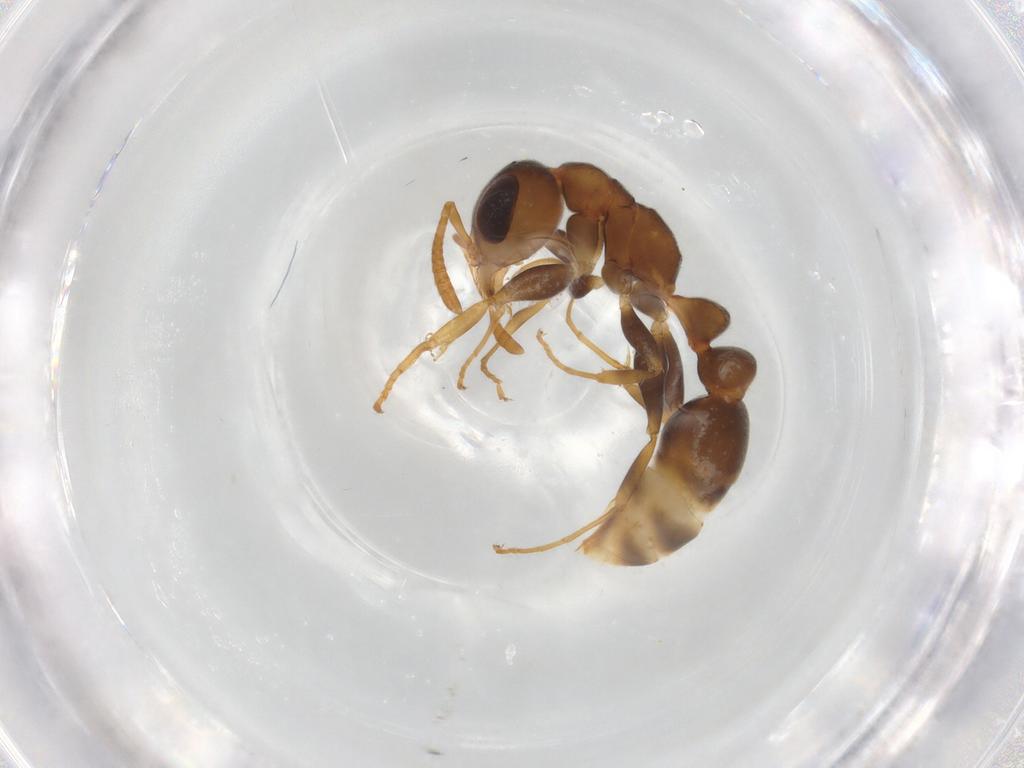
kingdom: Animalia
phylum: Arthropoda
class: Insecta
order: Hymenoptera
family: Formicidae
